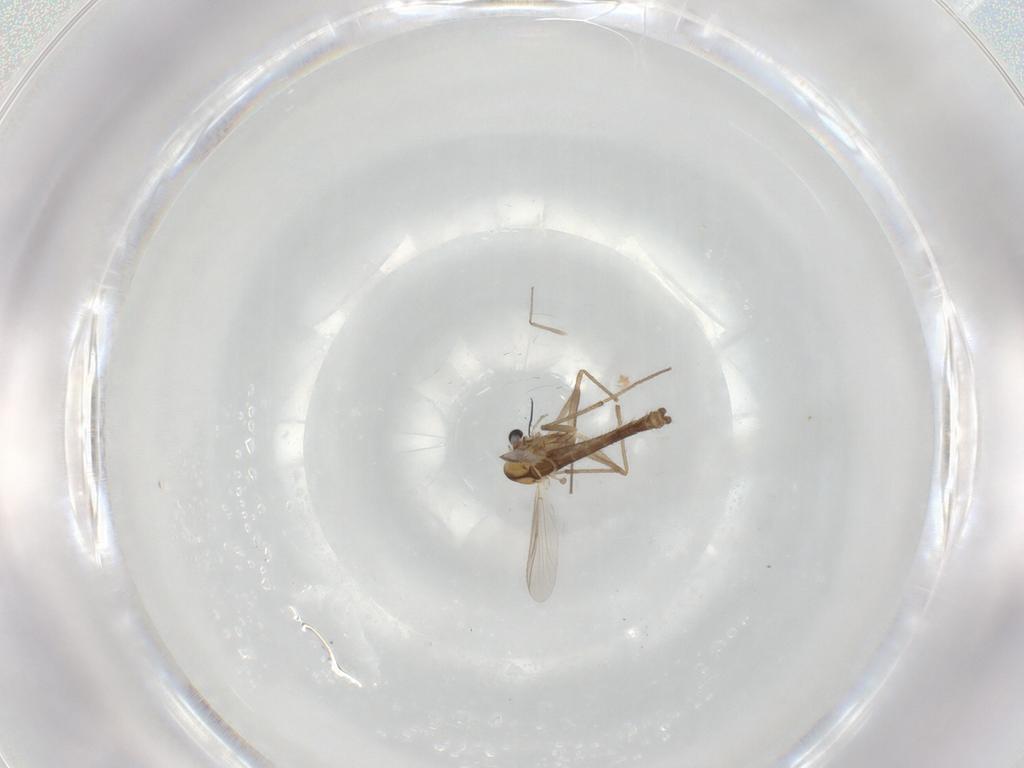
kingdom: Animalia
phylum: Arthropoda
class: Insecta
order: Diptera
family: Chironomidae
